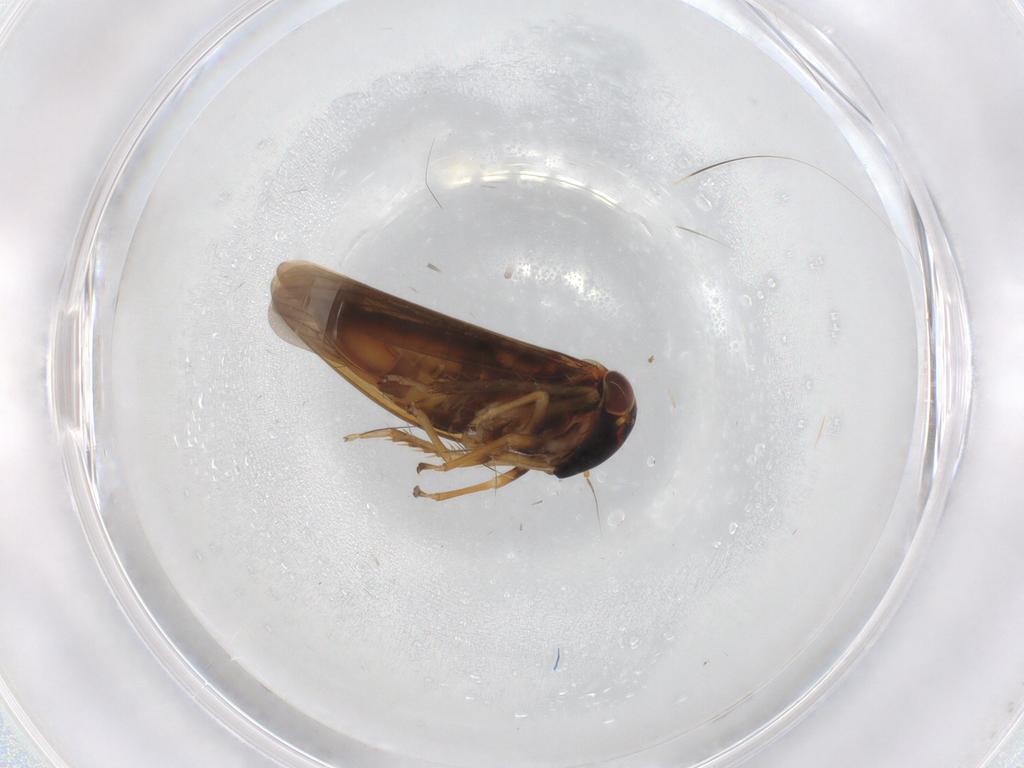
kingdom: Animalia
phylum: Arthropoda
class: Insecta
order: Hemiptera
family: Cicadellidae
